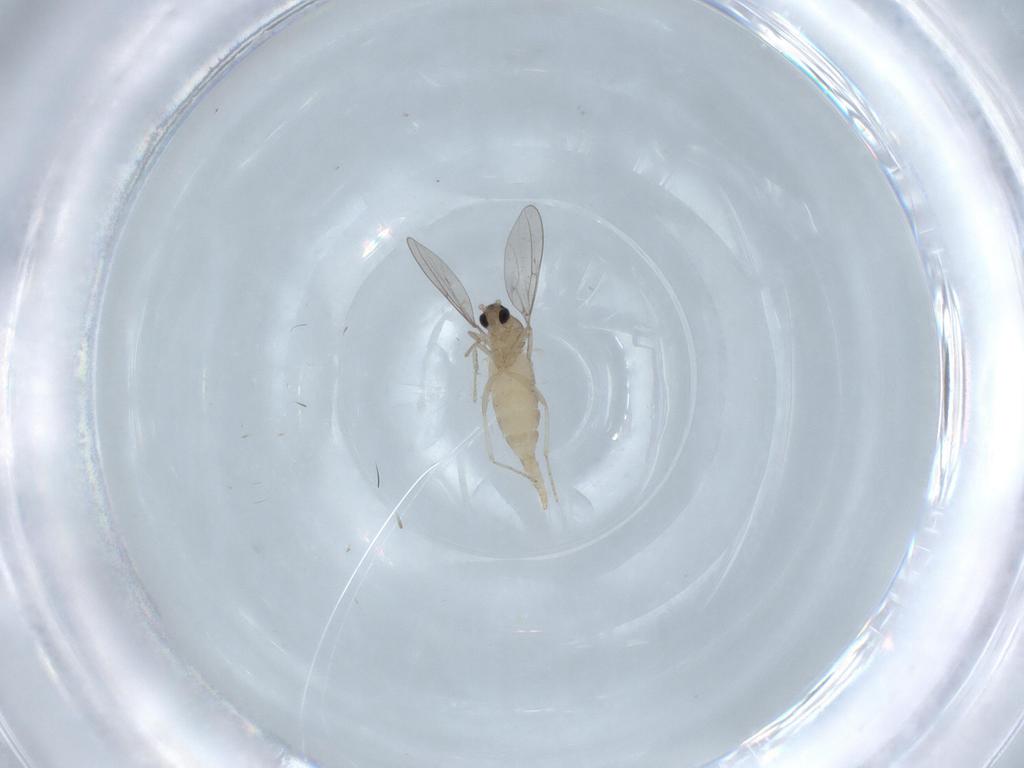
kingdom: Animalia
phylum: Arthropoda
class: Insecta
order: Diptera
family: Cecidomyiidae
